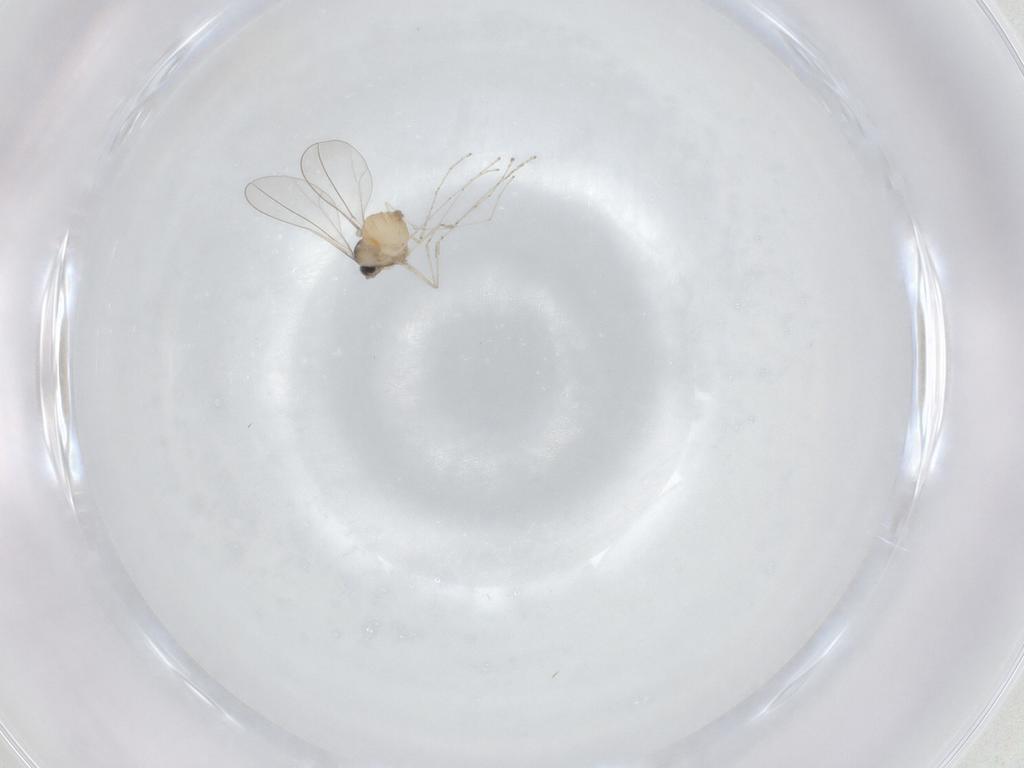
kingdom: Animalia
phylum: Arthropoda
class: Insecta
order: Diptera
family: Cecidomyiidae
